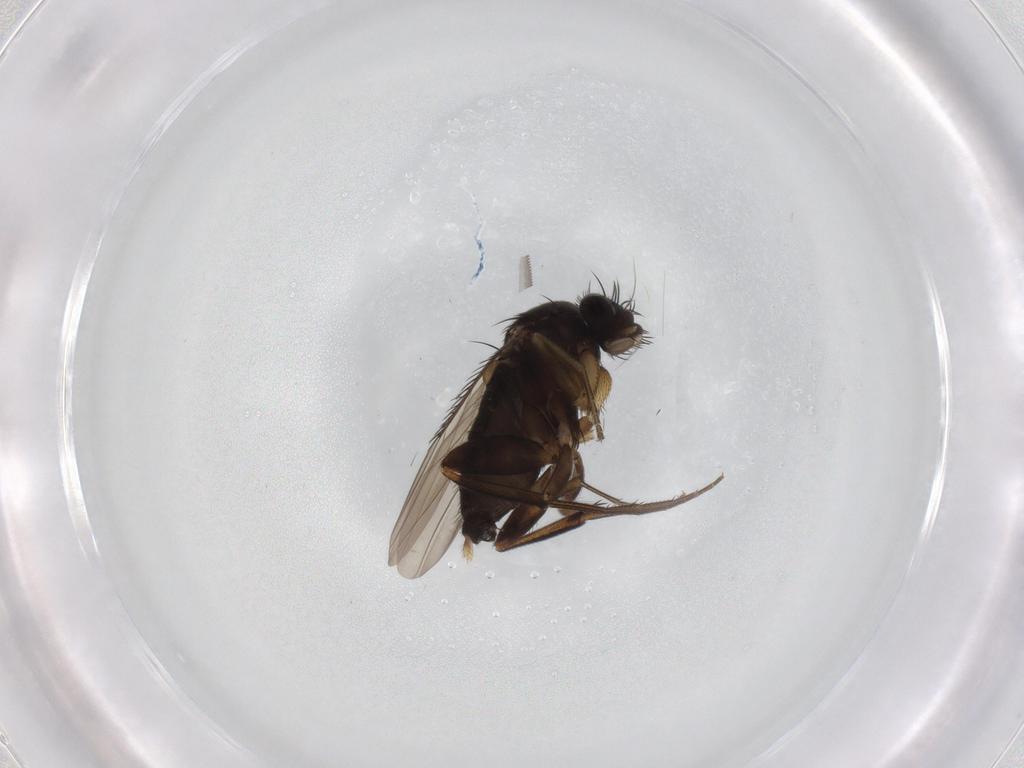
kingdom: Animalia
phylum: Arthropoda
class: Insecta
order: Diptera
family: Phoridae
